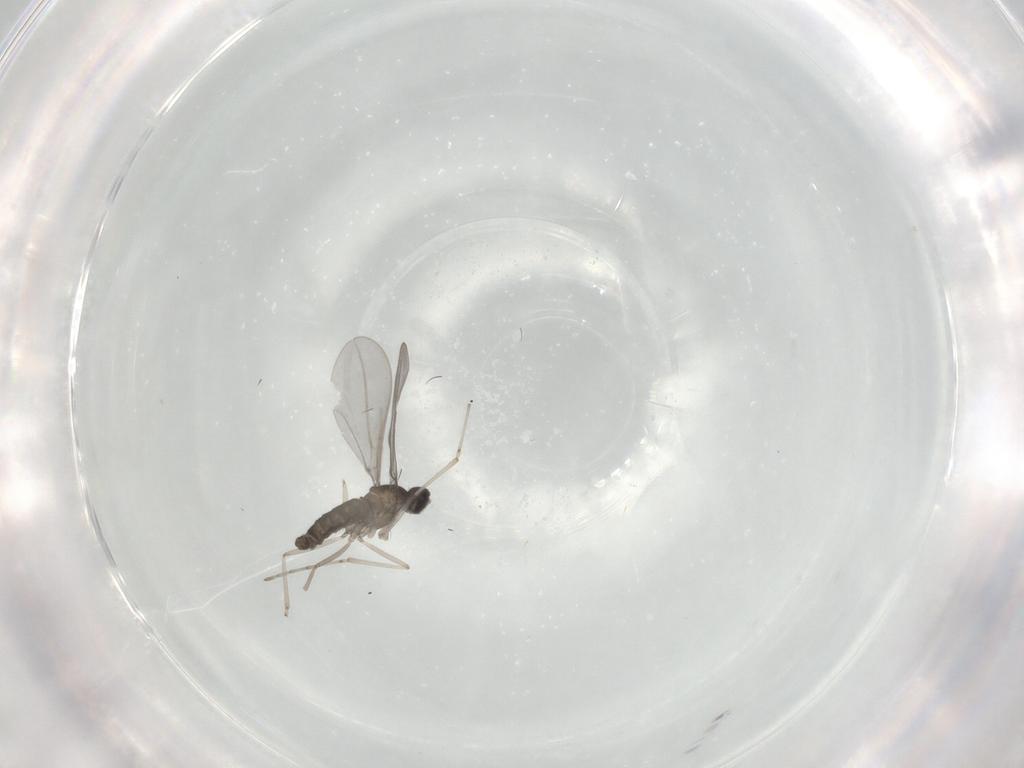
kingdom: Animalia
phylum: Arthropoda
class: Insecta
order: Diptera
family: Cecidomyiidae
